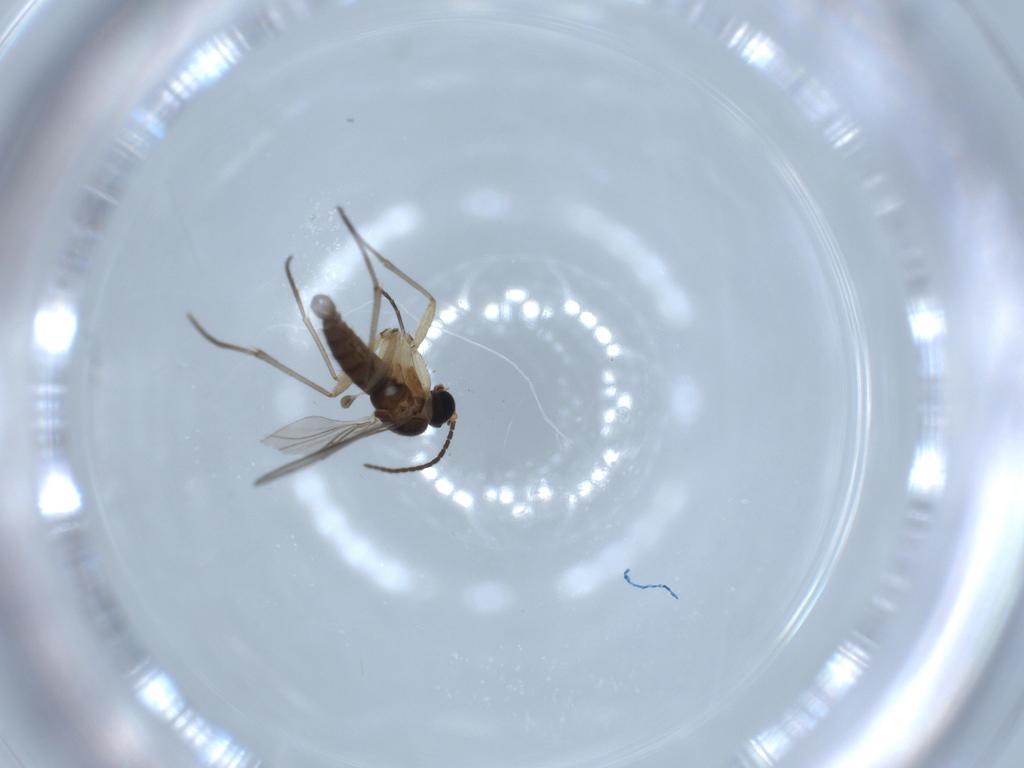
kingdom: Animalia
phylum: Arthropoda
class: Insecta
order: Diptera
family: Sciaridae
